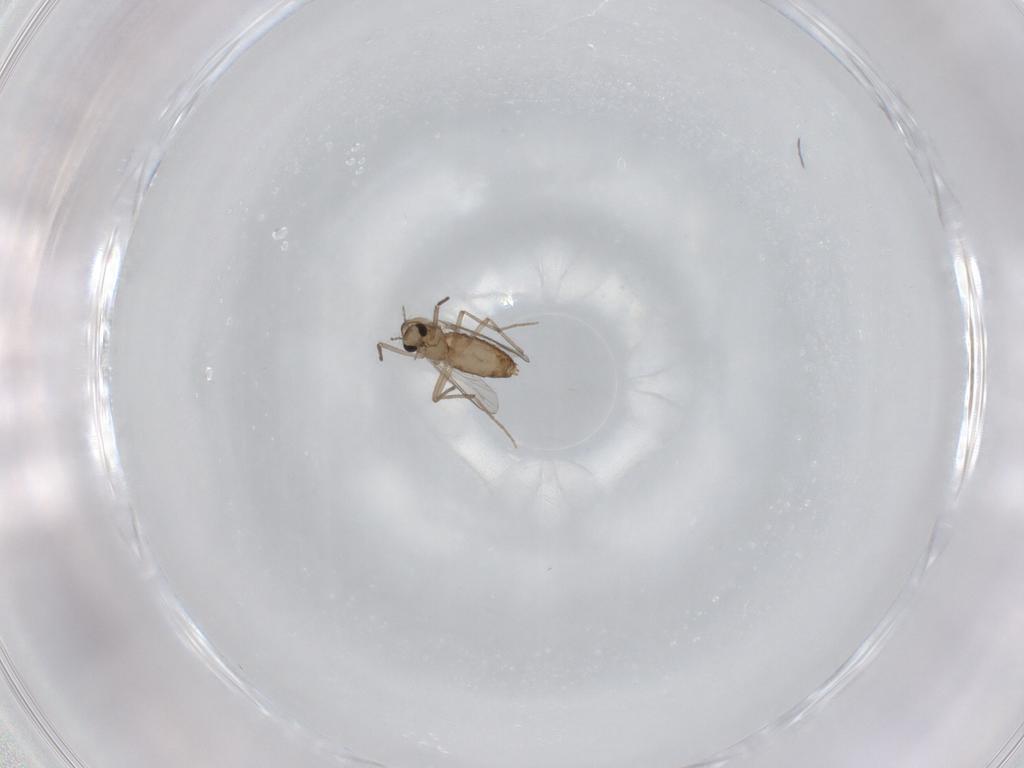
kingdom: Animalia
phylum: Arthropoda
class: Insecta
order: Diptera
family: Chironomidae
